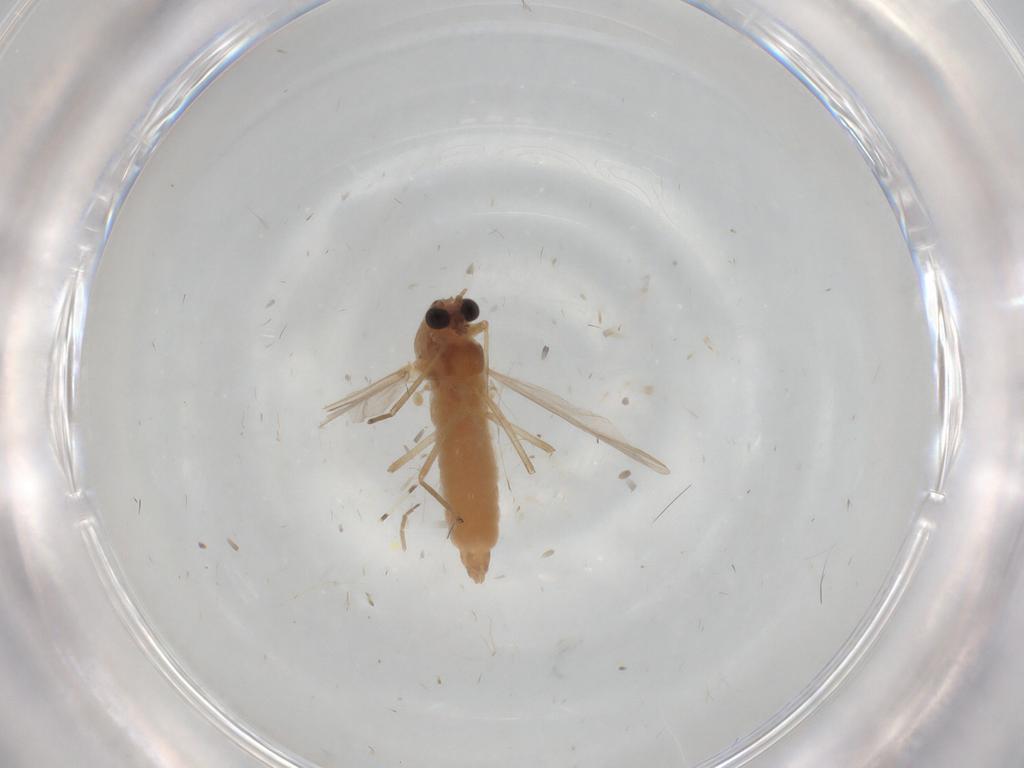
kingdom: Animalia
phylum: Arthropoda
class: Insecta
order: Diptera
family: Chironomidae
